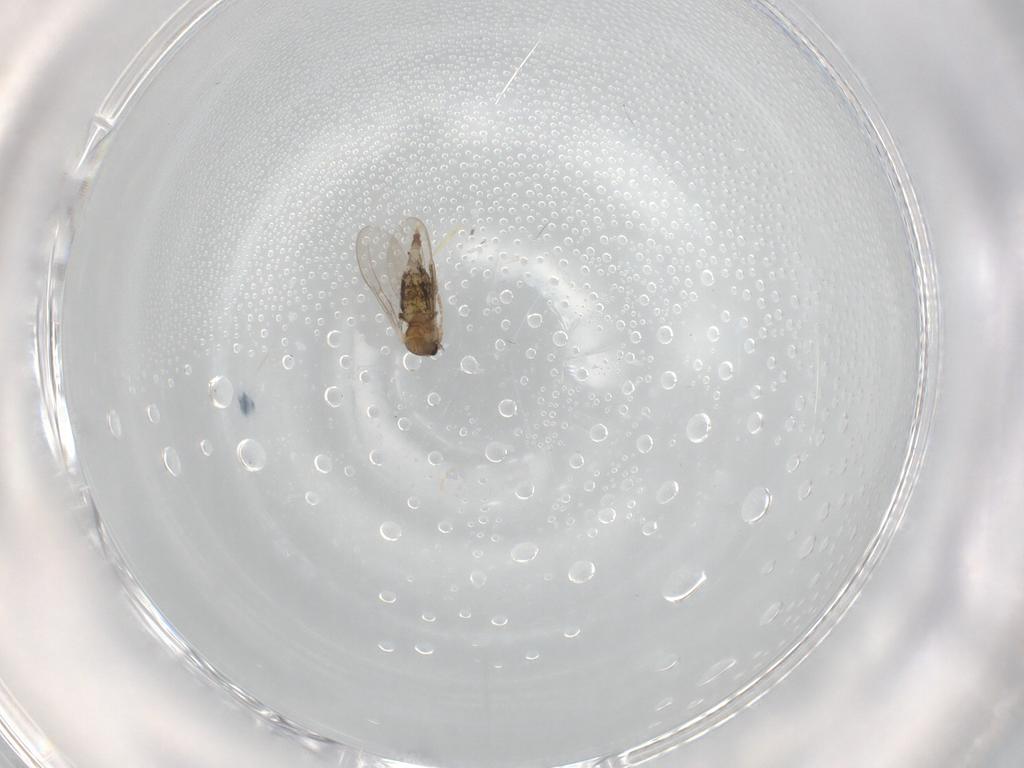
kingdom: Animalia
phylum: Arthropoda
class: Insecta
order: Diptera
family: Cecidomyiidae
